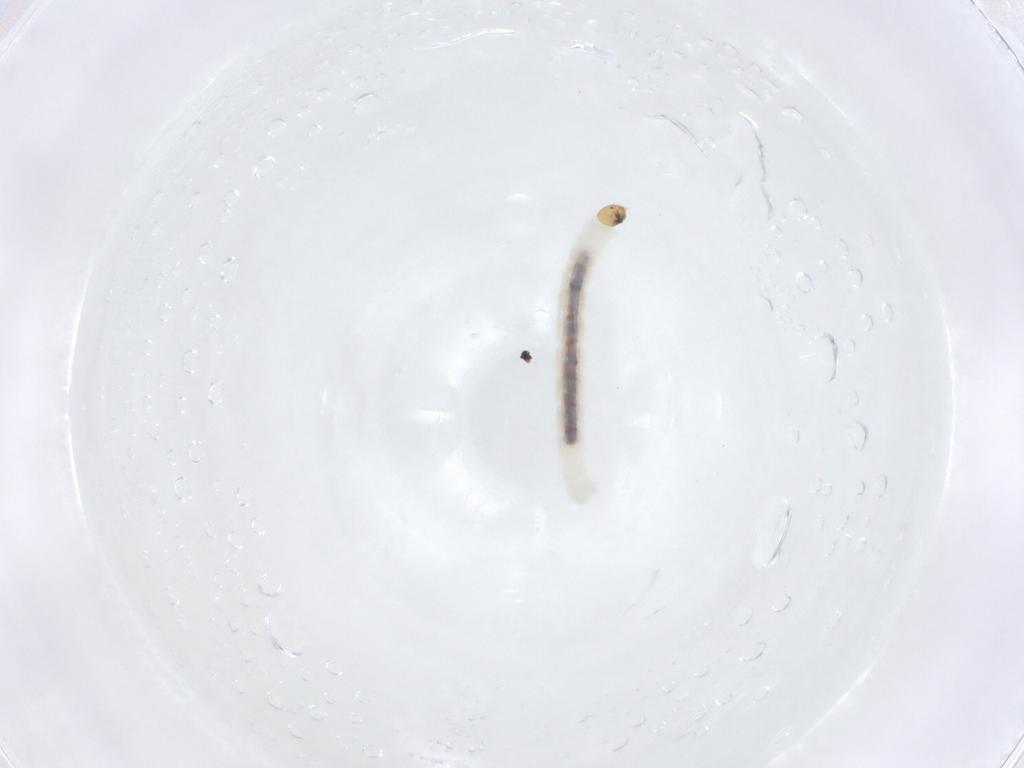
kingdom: Animalia
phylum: Arthropoda
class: Insecta
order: Diptera
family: Chironomidae
